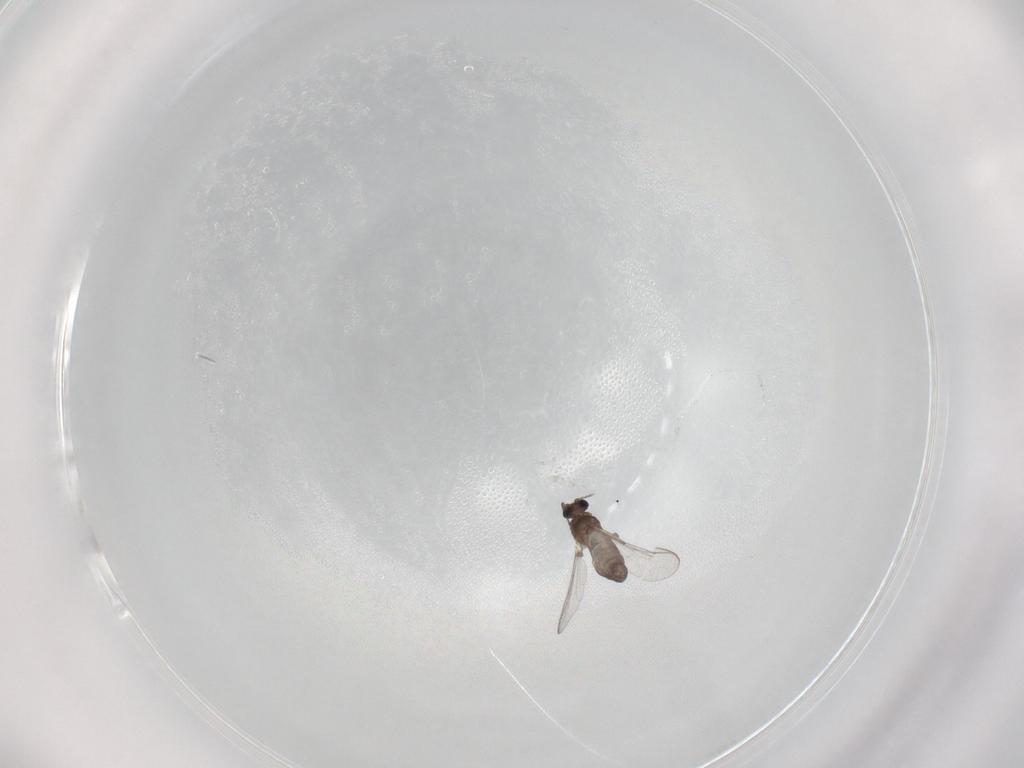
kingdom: Animalia
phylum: Arthropoda
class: Insecta
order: Diptera
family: Chironomidae
